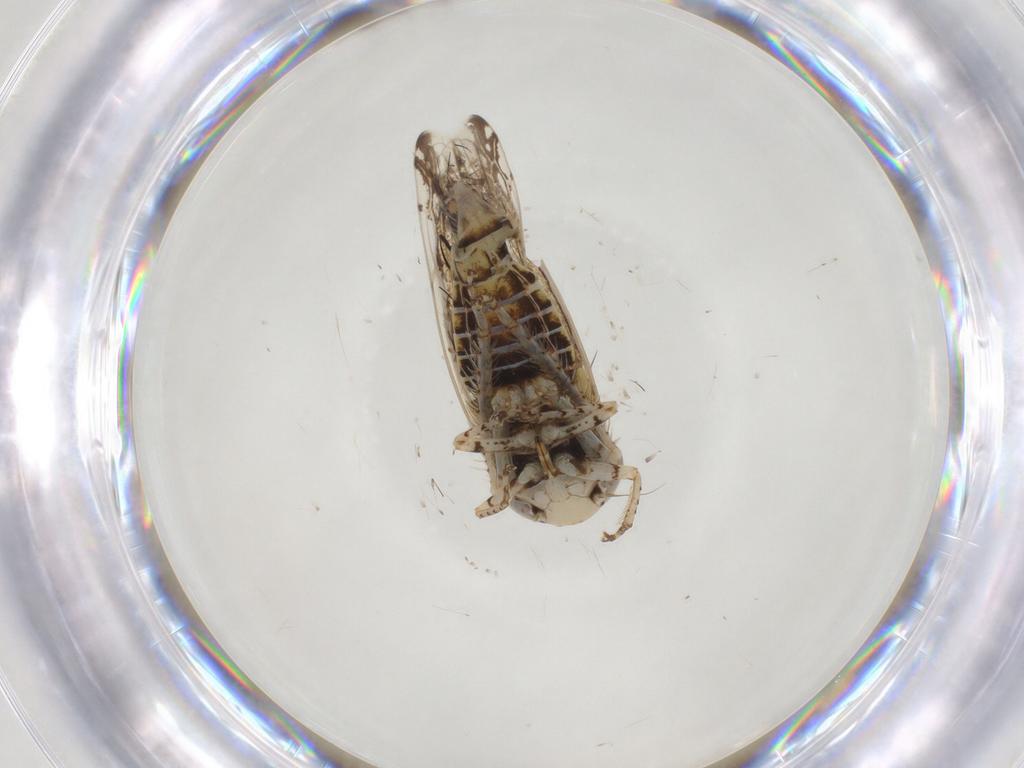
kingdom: Animalia
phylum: Arthropoda
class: Insecta
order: Hemiptera
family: Cicadellidae
